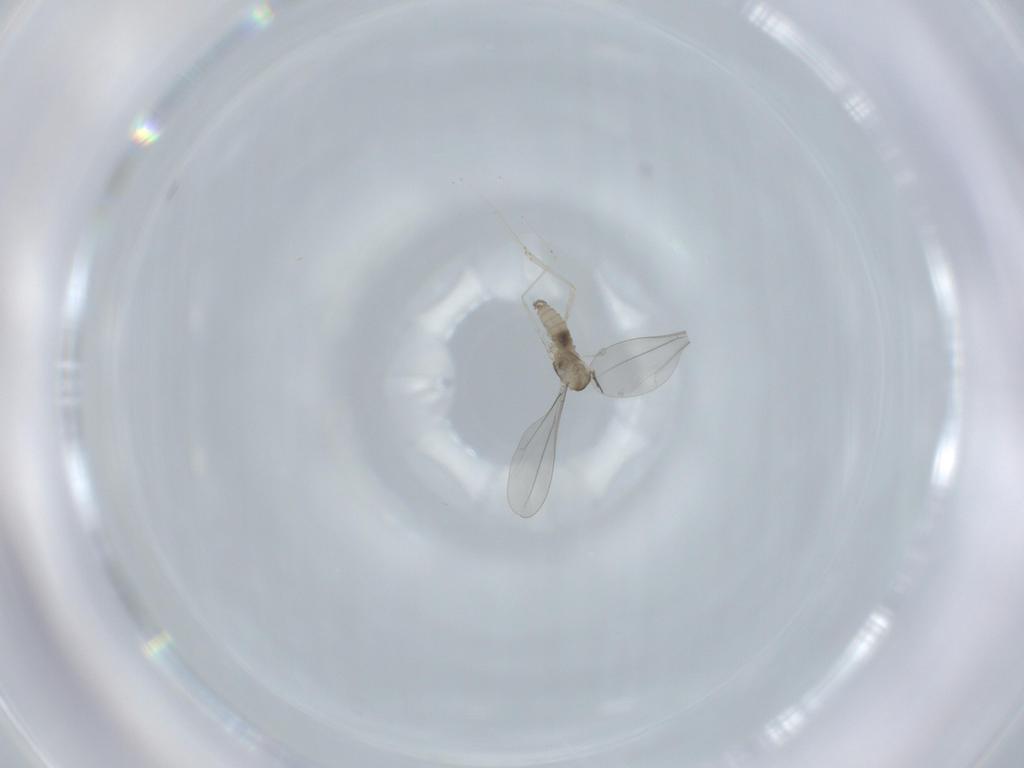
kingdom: Animalia
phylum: Arthropoda
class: Insecta
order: Diptera
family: Cecidomyiidae
